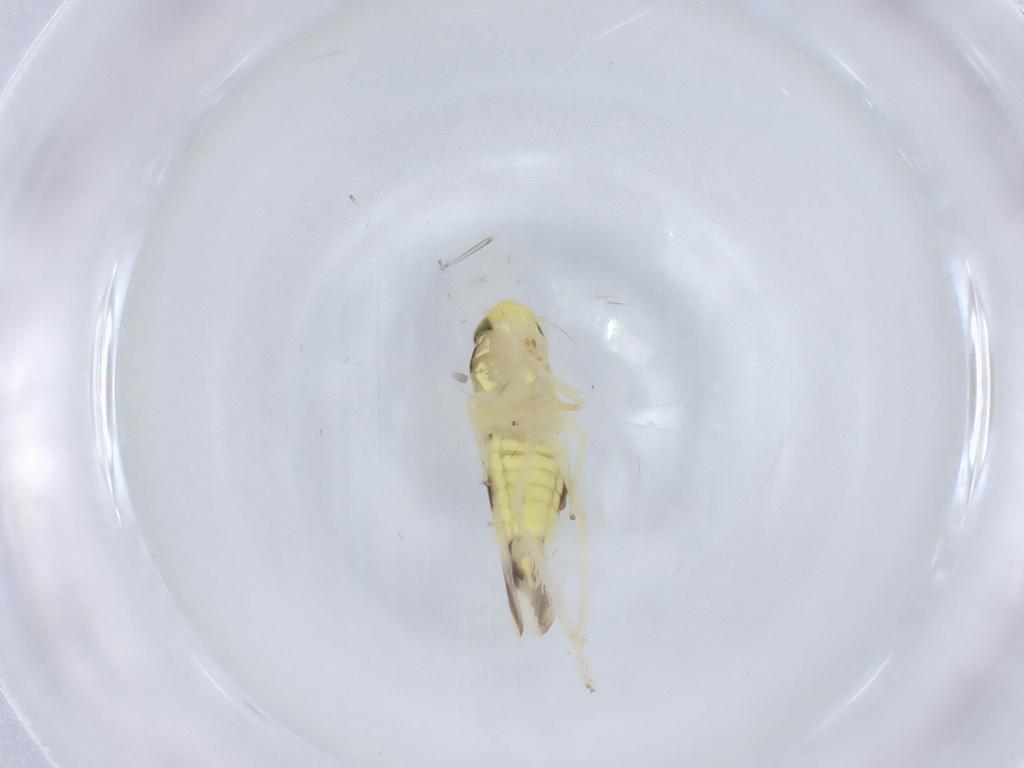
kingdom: Animalia
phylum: Arthropoda
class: Insecta
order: Hemiptera
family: Cicadellidae
